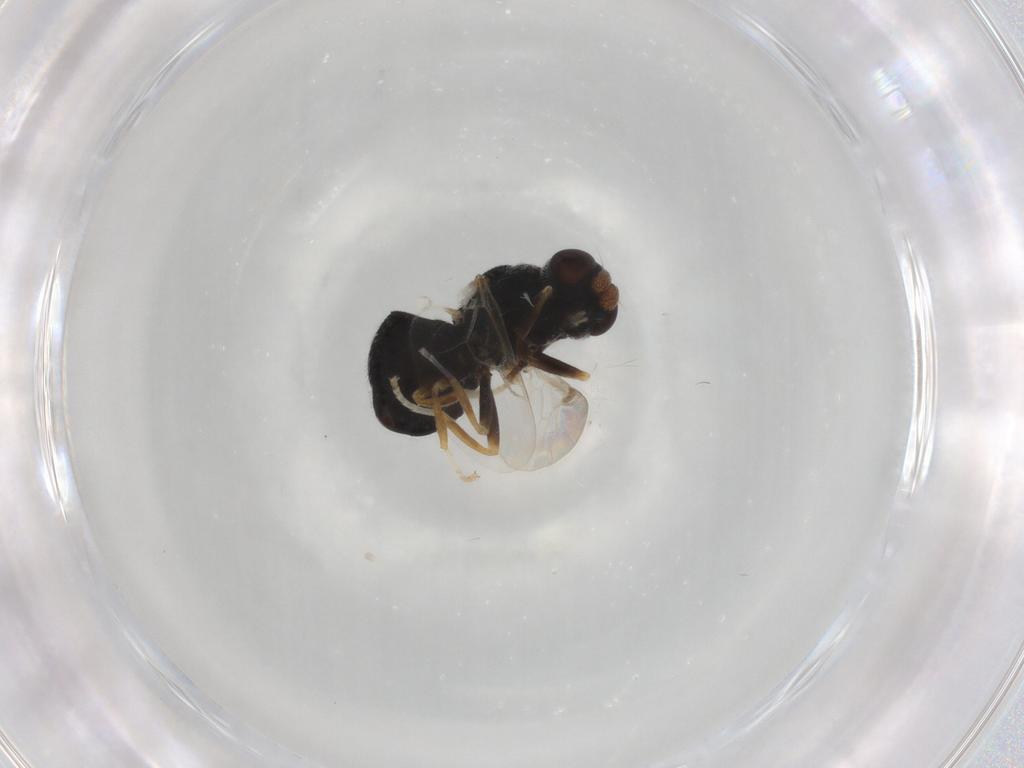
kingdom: Animalia
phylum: Arthropoda
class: Insecta
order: Diptera
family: Stratiomyidae
